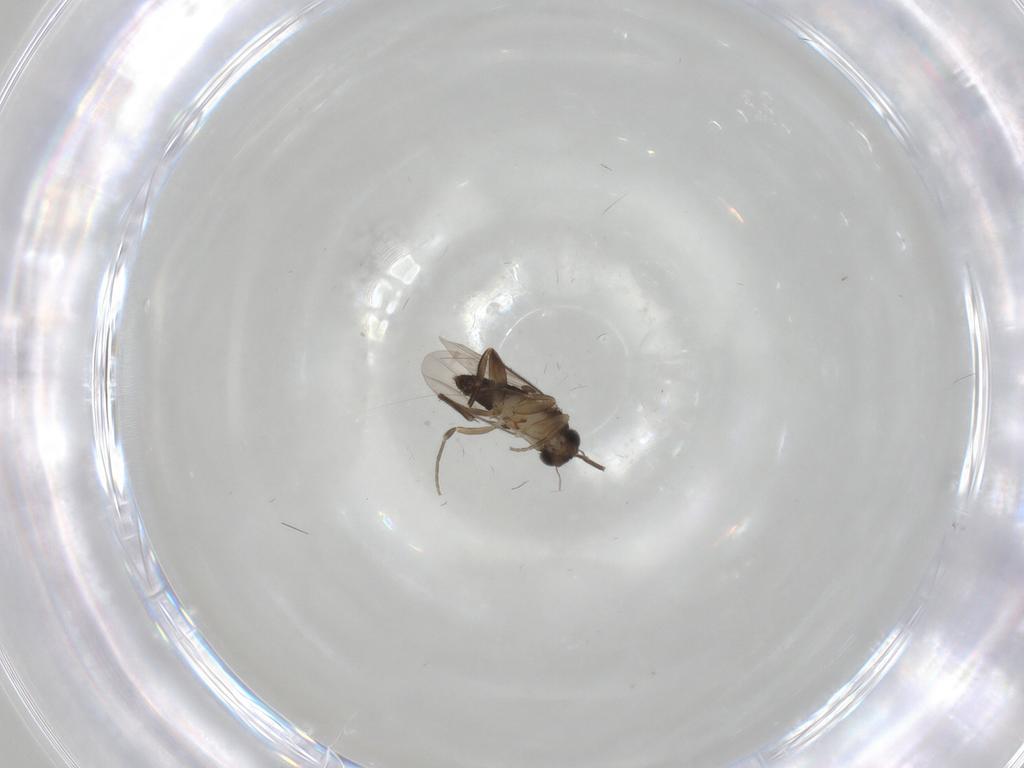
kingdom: Animalia
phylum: Arthropoda
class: Insecta
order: Diptera
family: Phoridae
